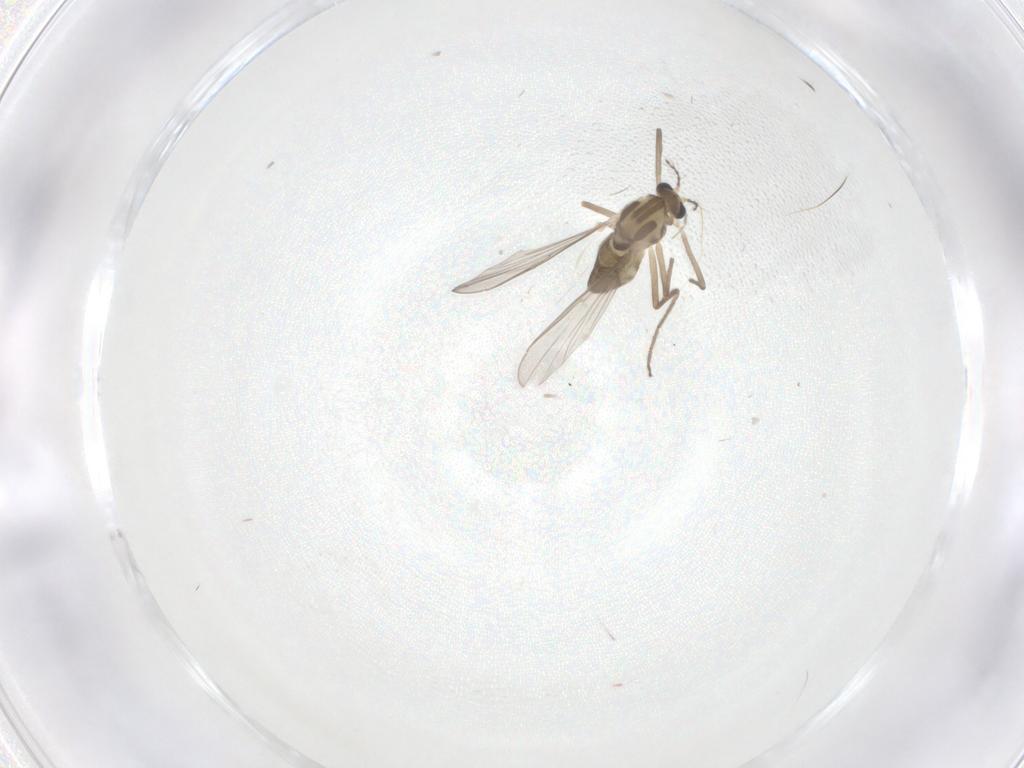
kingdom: Animalia
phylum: Arthropoda
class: Insecta
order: Diptera
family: Chironomidae
